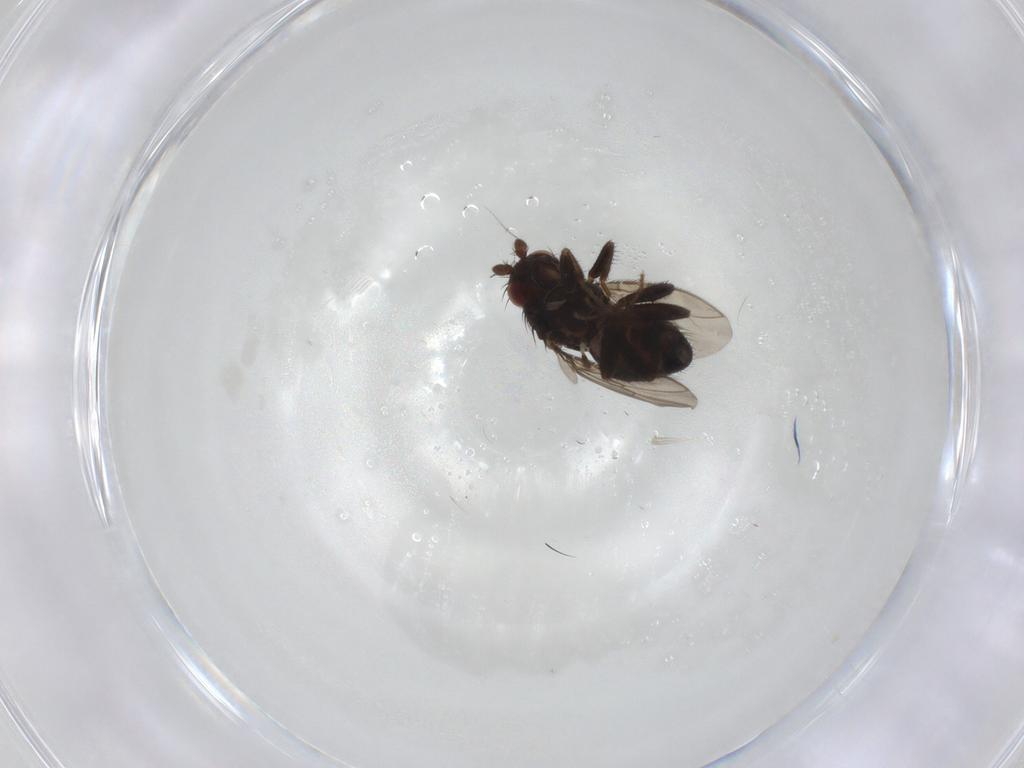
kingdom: Animalia
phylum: Arthropoda
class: Insecta
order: Diptera
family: Sphaeroceridae
